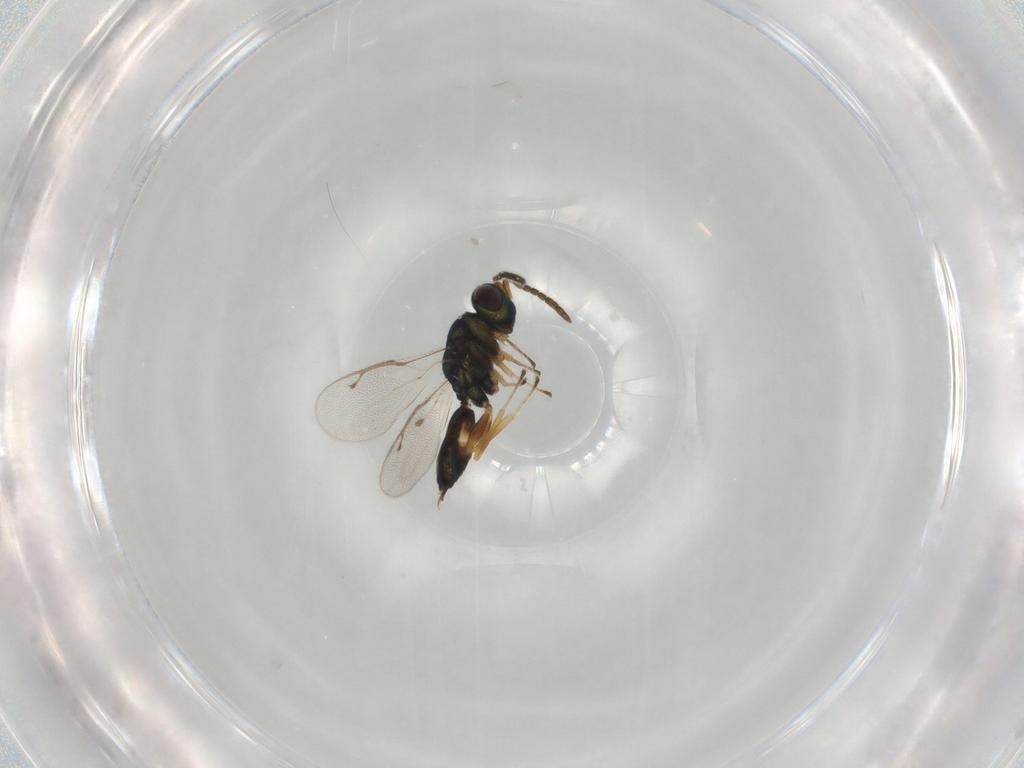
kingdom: Animalia
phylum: Arthropoda
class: Insecta
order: Hymenoptera
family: Pteromalidae
